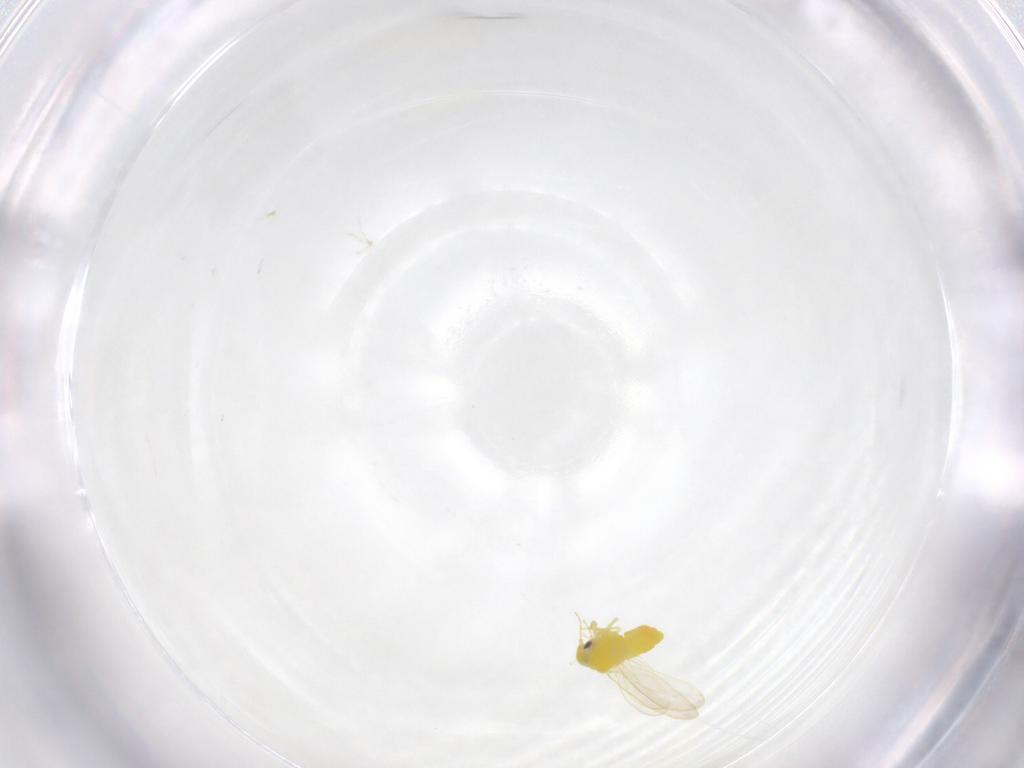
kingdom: Animalia
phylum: Arthropoda
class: Insecta
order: Hemiptera
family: Aleyrodidae
